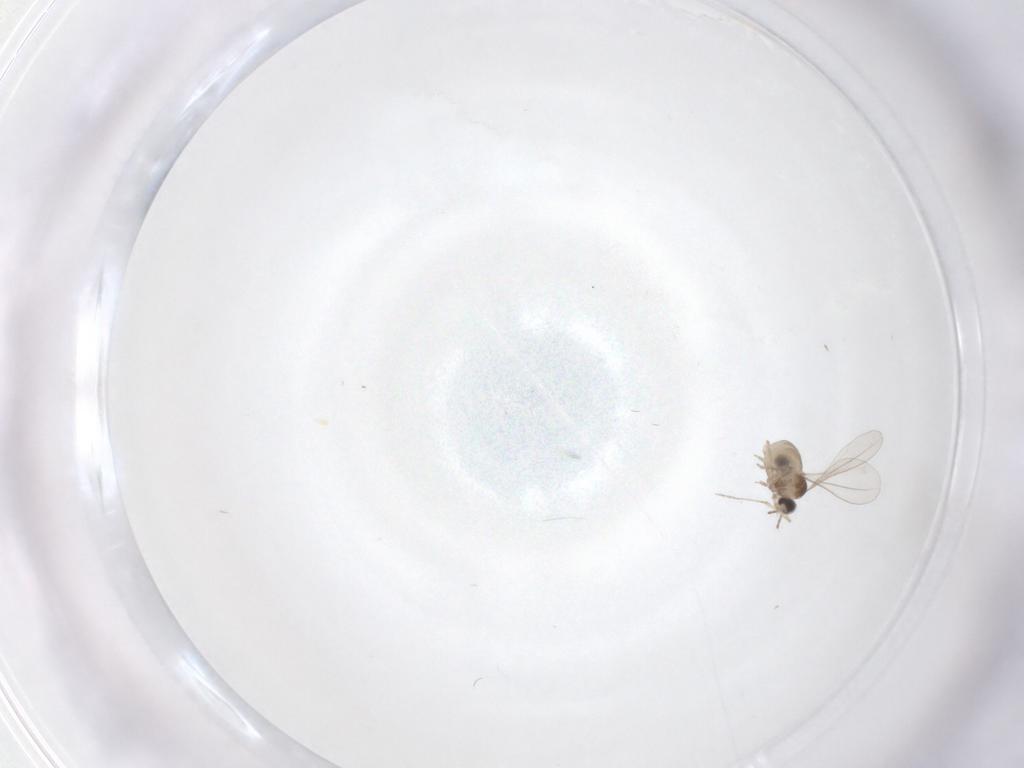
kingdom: Animalia
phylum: Arthropoda
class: Insecta
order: Diptera
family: Cecidomyiidae
